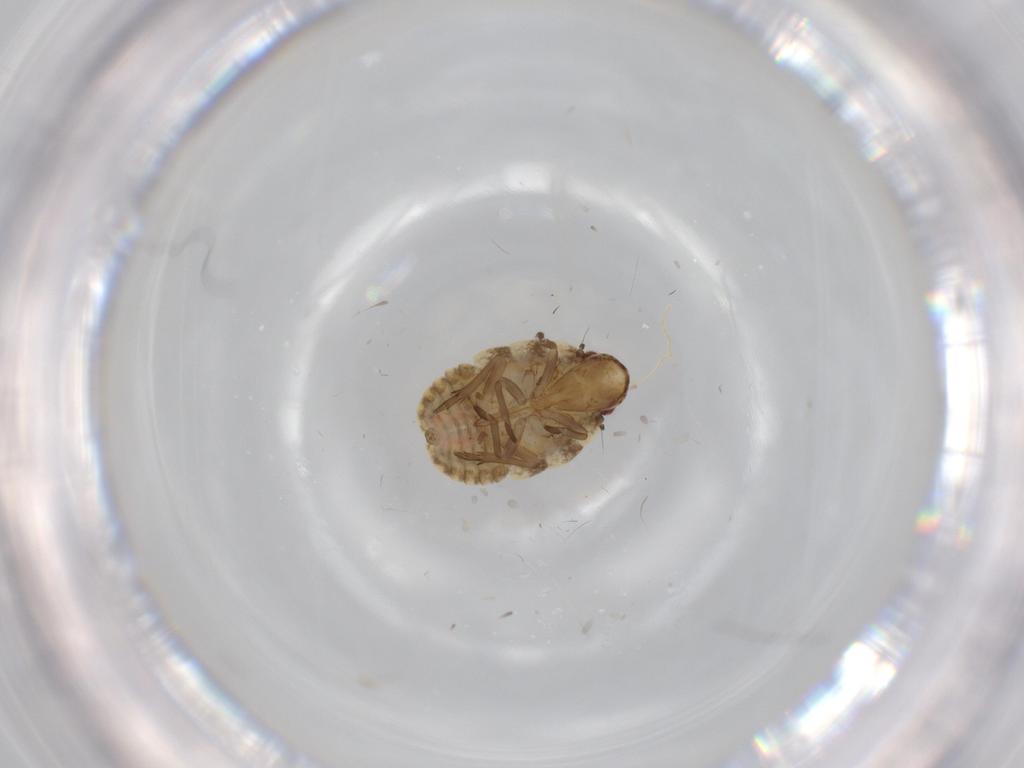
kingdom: Animalia
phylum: Arthropoda
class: Insecta
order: Hemiptera
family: Flatidae
